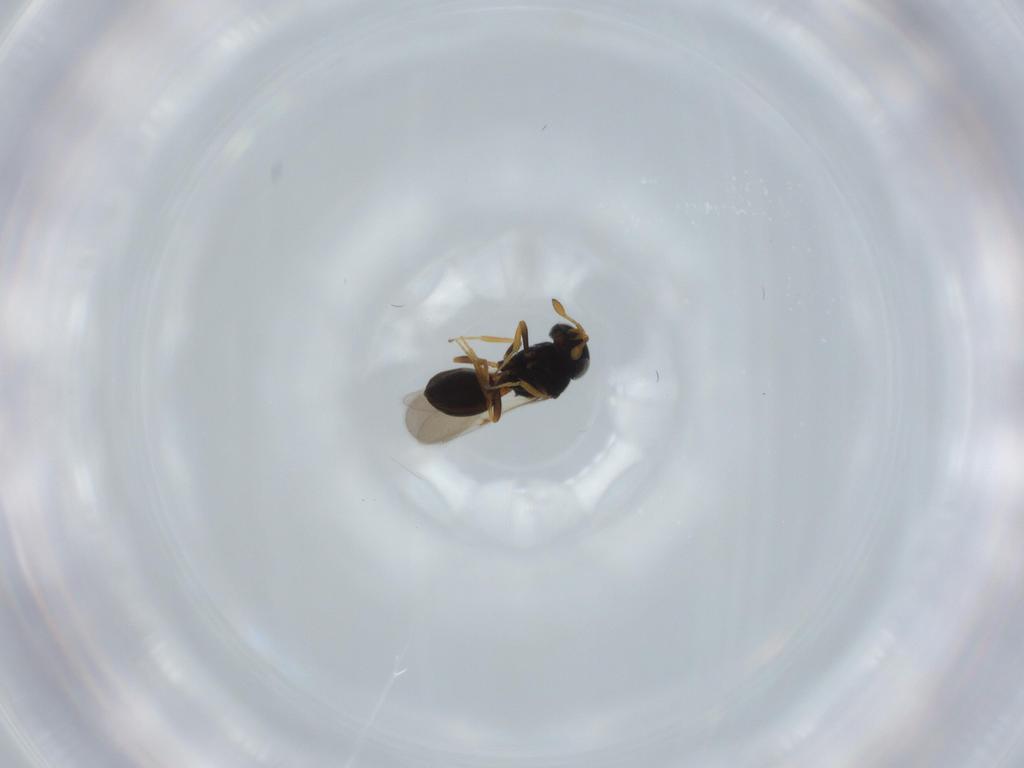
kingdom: Animalia
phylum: Arthropoda
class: Insecta
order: Hymenoptera
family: Scelionidae
